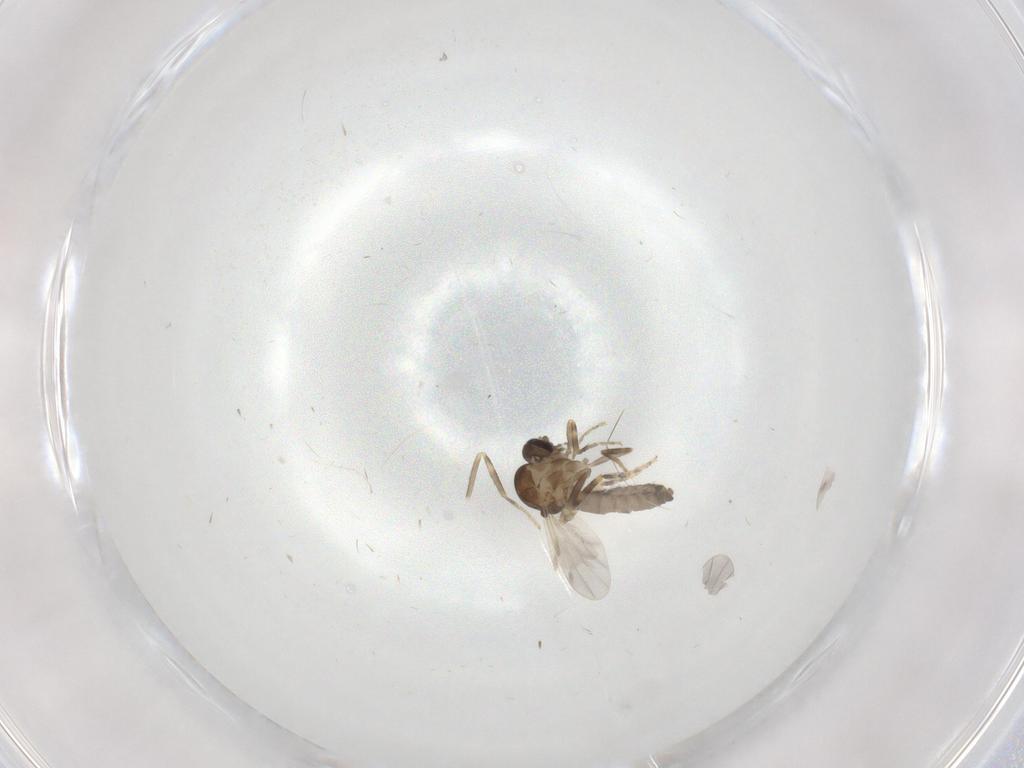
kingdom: Animalia
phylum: Arthropoda
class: Insecta
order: Diptera
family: Ceratopogonidae
